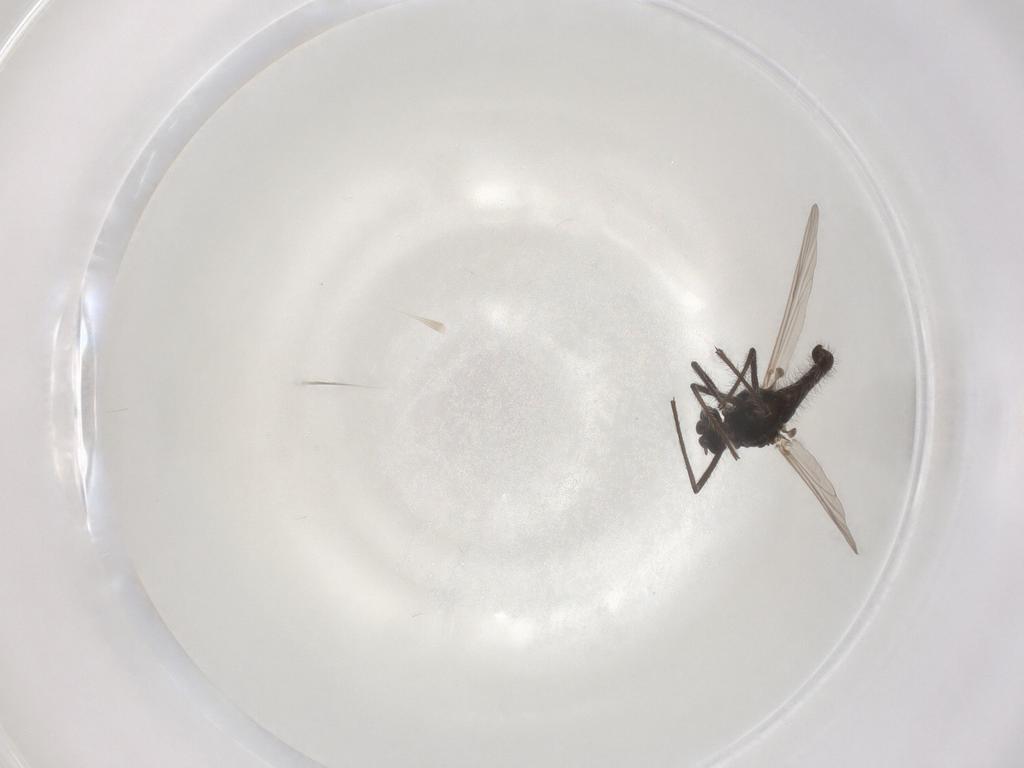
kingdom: Animalia
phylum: Arthropoda
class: Insecta
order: Diptera
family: Chironomidae
